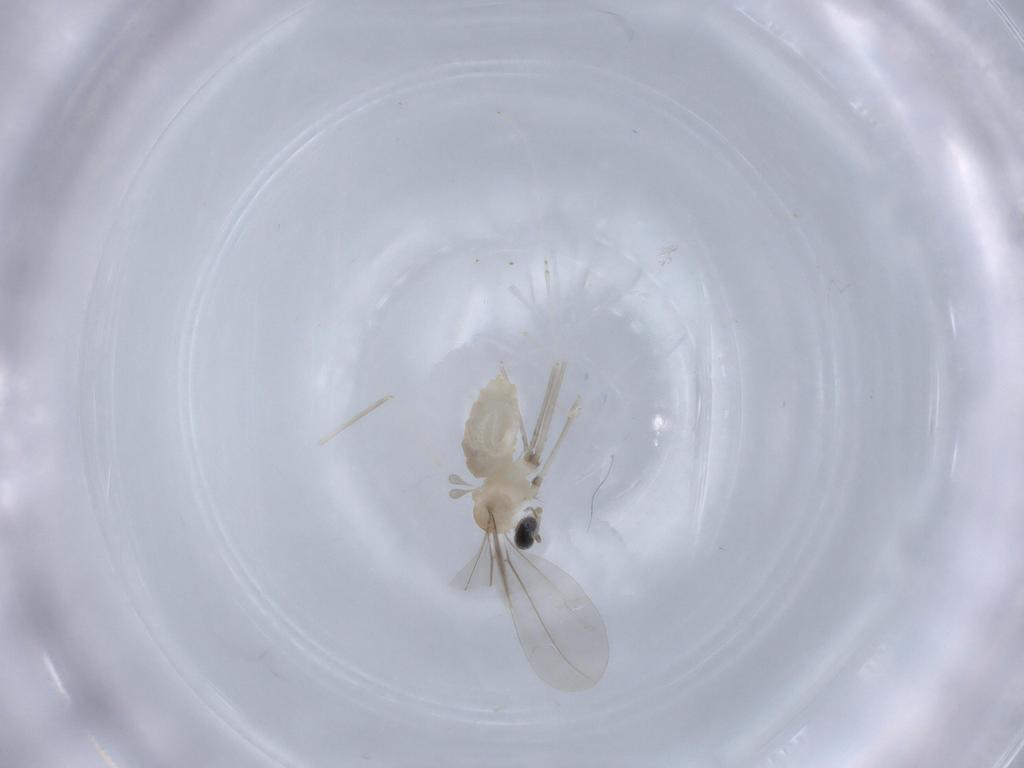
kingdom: Animalia
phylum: Arthropoda
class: Insecta
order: Diptera
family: Cecidomyiidae
